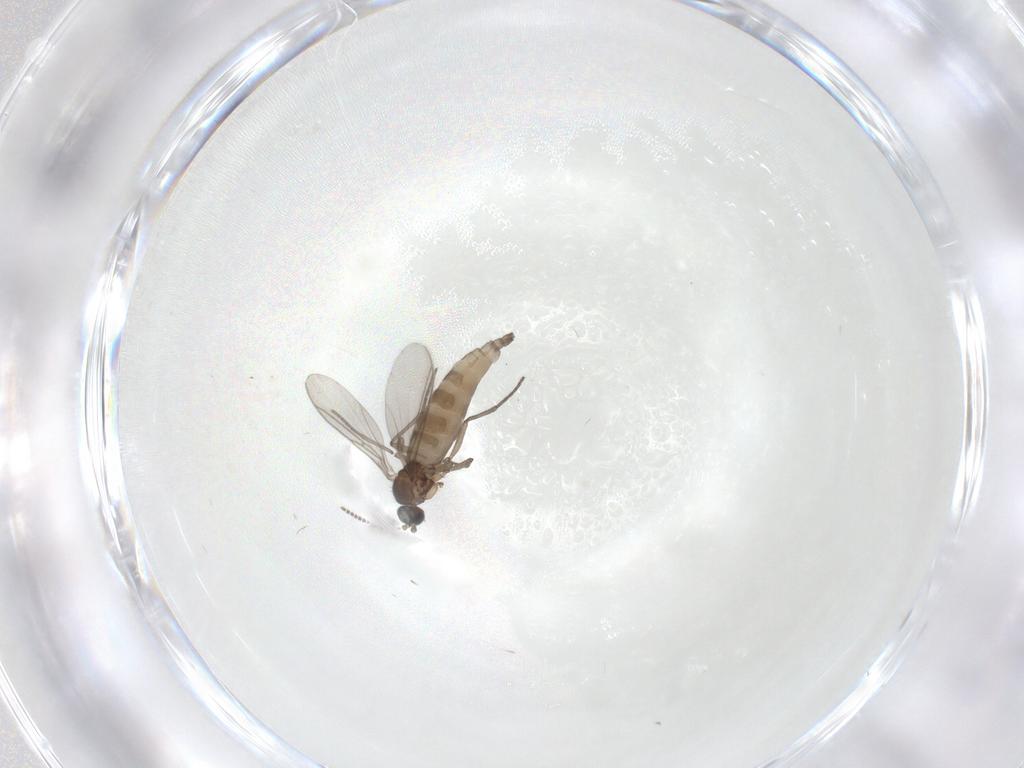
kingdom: Animalia
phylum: Arthropoda
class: Insecta
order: Diptera
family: Sciaridae
